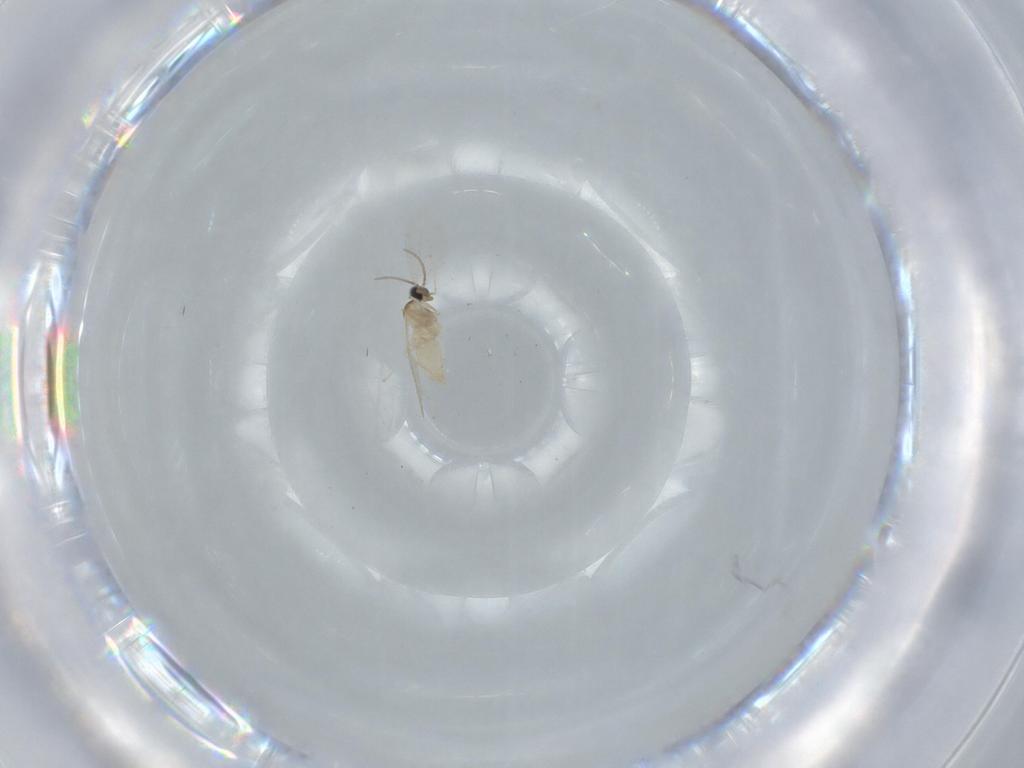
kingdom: Animalia
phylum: Arthropoda
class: Insecta
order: Diptera
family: Cecidomyiidae
